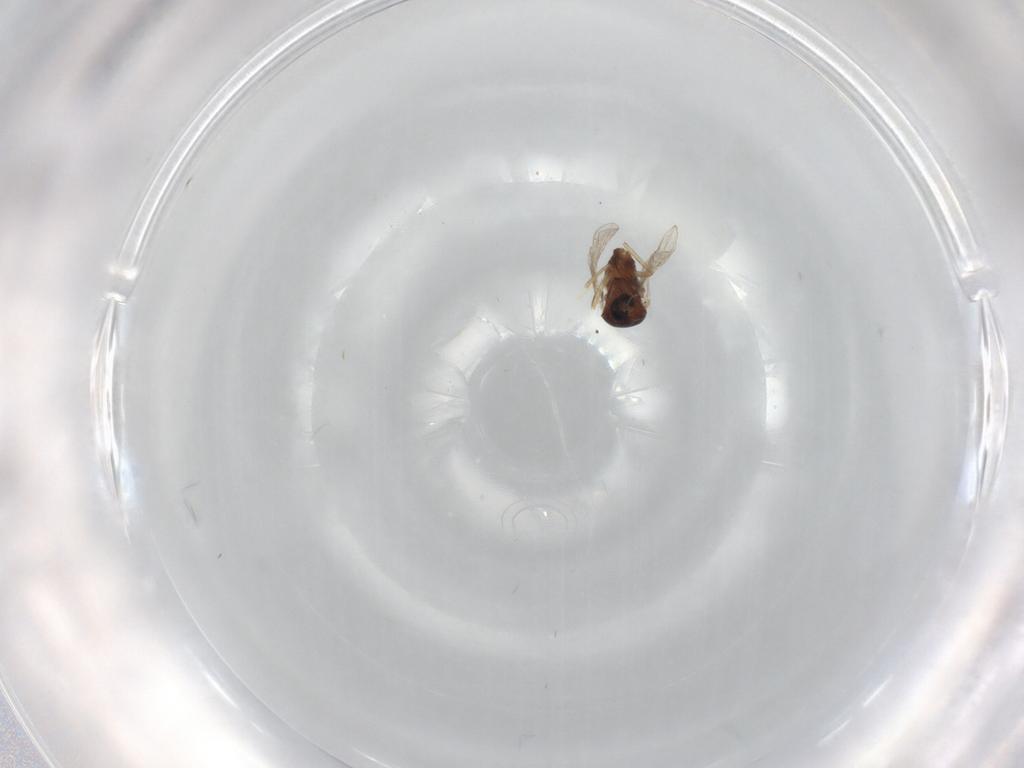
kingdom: Animalia
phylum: Arthropoda
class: Insecta
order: Diptera
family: Ceratopogonidae
